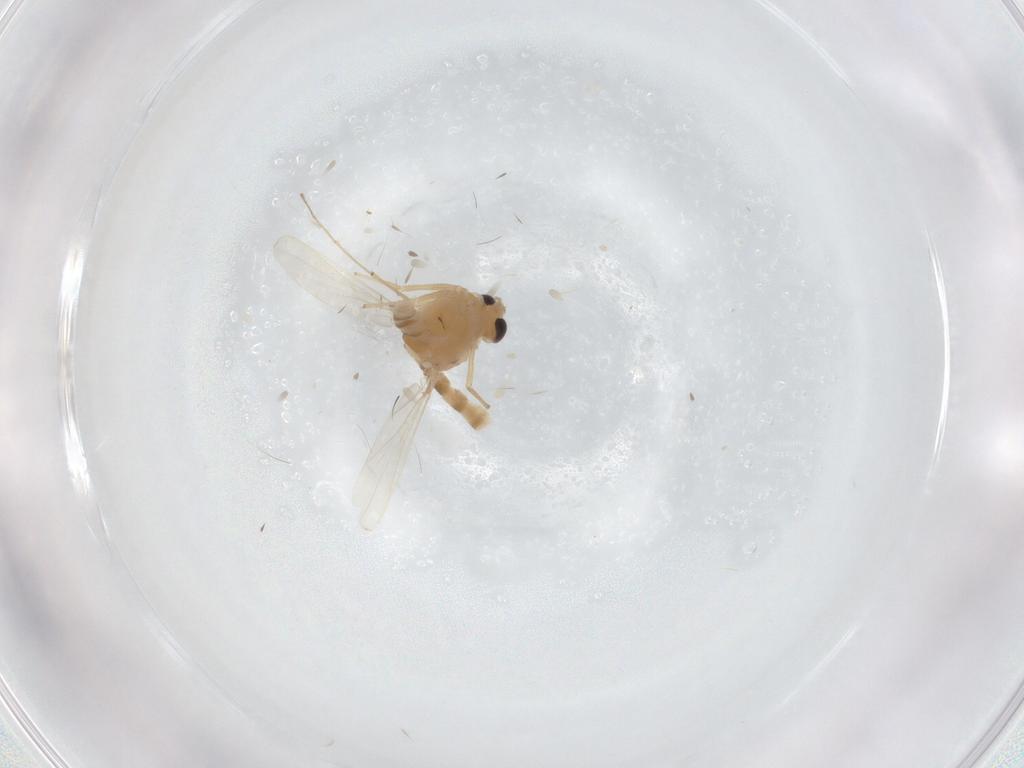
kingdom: Animalia
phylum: Arthropoda
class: Insecta
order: Diptera
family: Chironomidae
